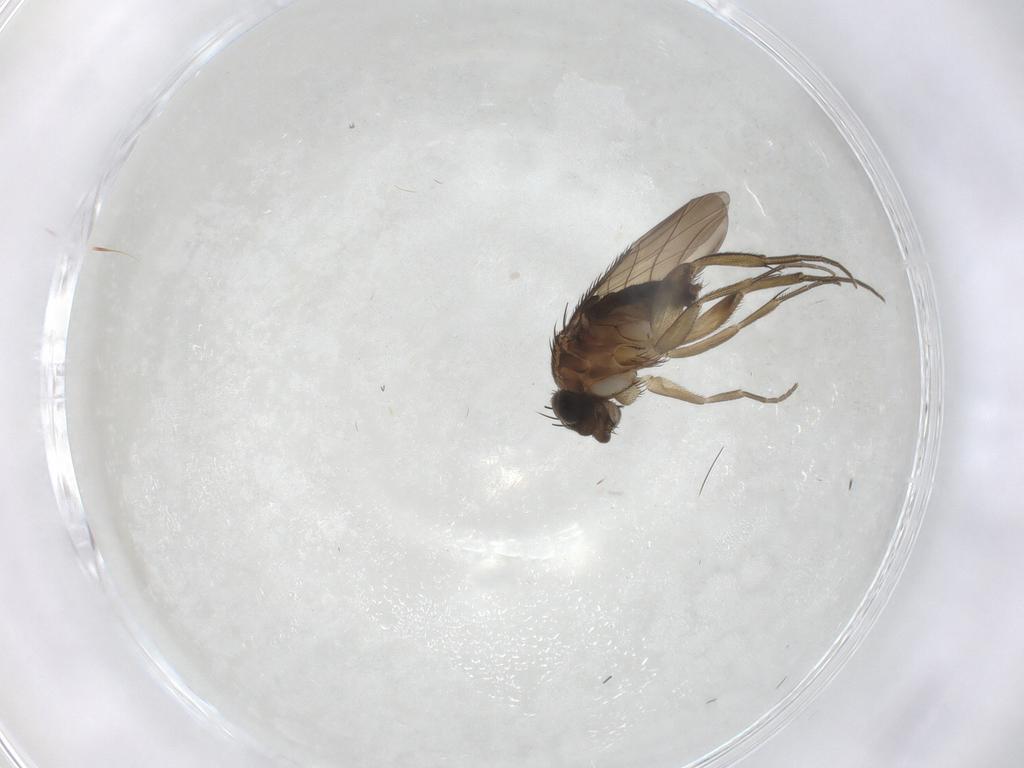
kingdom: Animalia
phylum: Arthropoda
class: Insecta
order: Diptera
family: Phoridae
